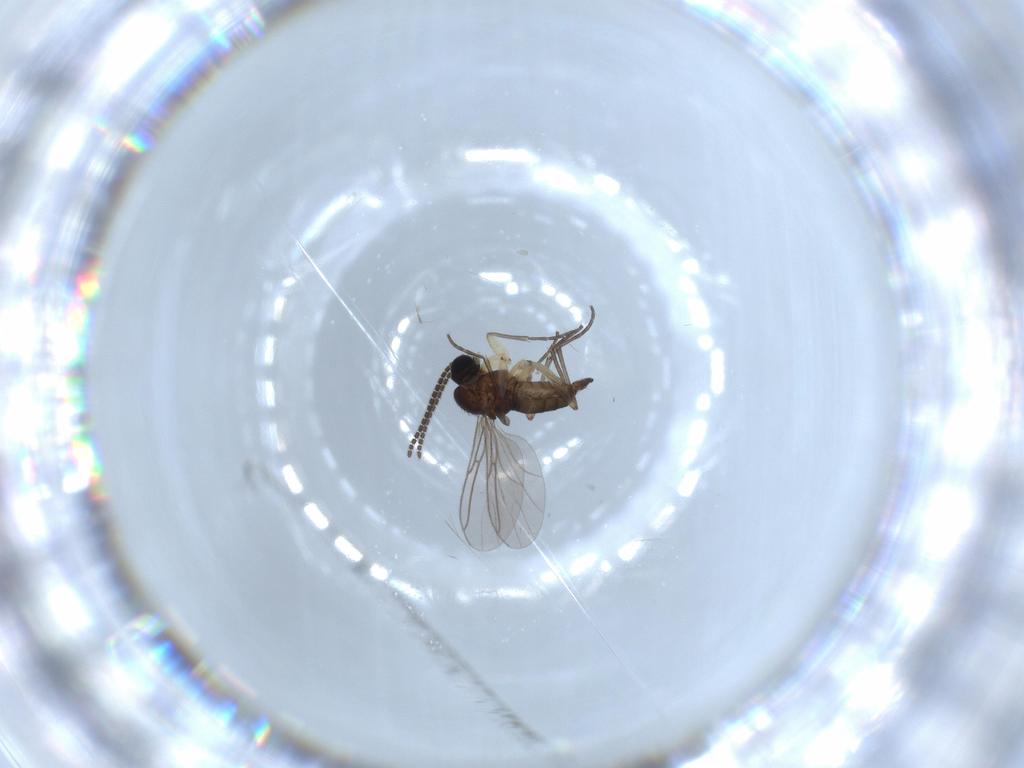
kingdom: Animalia
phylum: Arthropoda
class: Insecta
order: Diptera
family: Sciaridae
